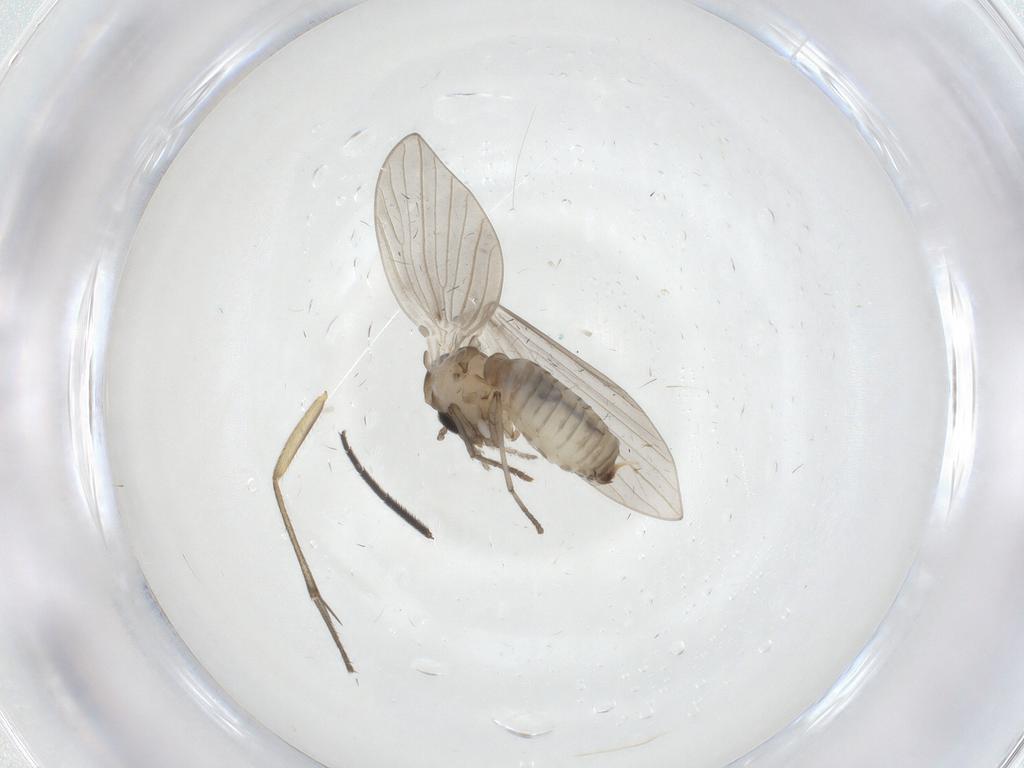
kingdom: Animalia
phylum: Arthropoda
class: Insecta
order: Diptera
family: Psychodidae
